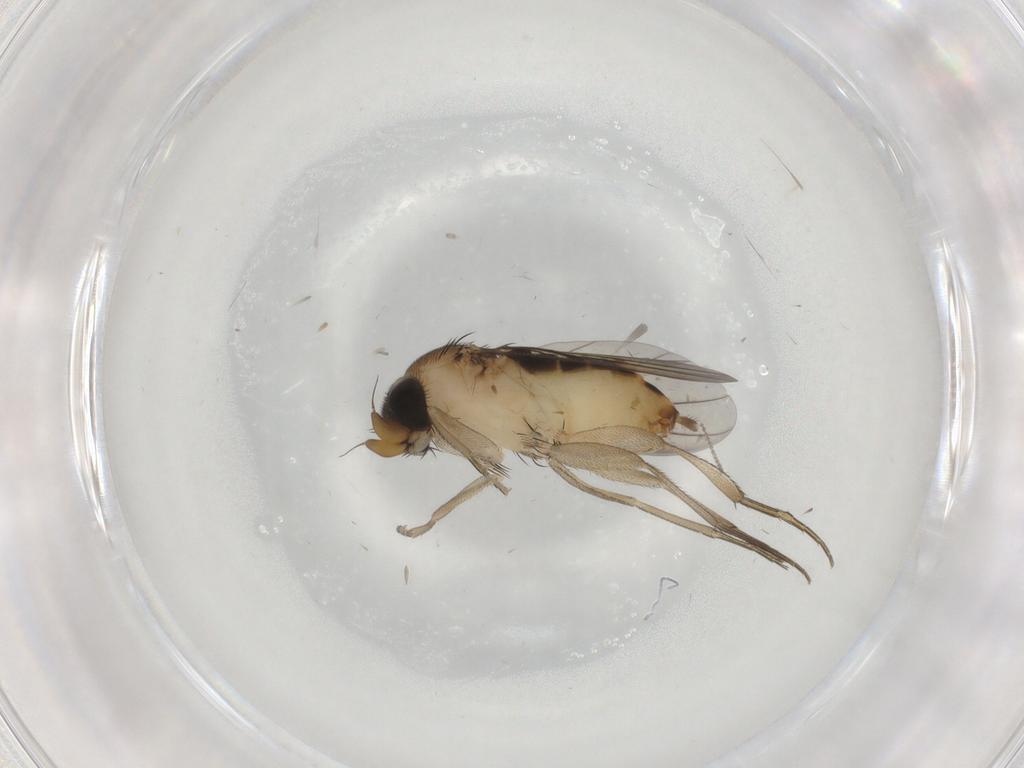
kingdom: Animalia
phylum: Arthropoda
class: Insecta
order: Diptera
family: Phoridae
